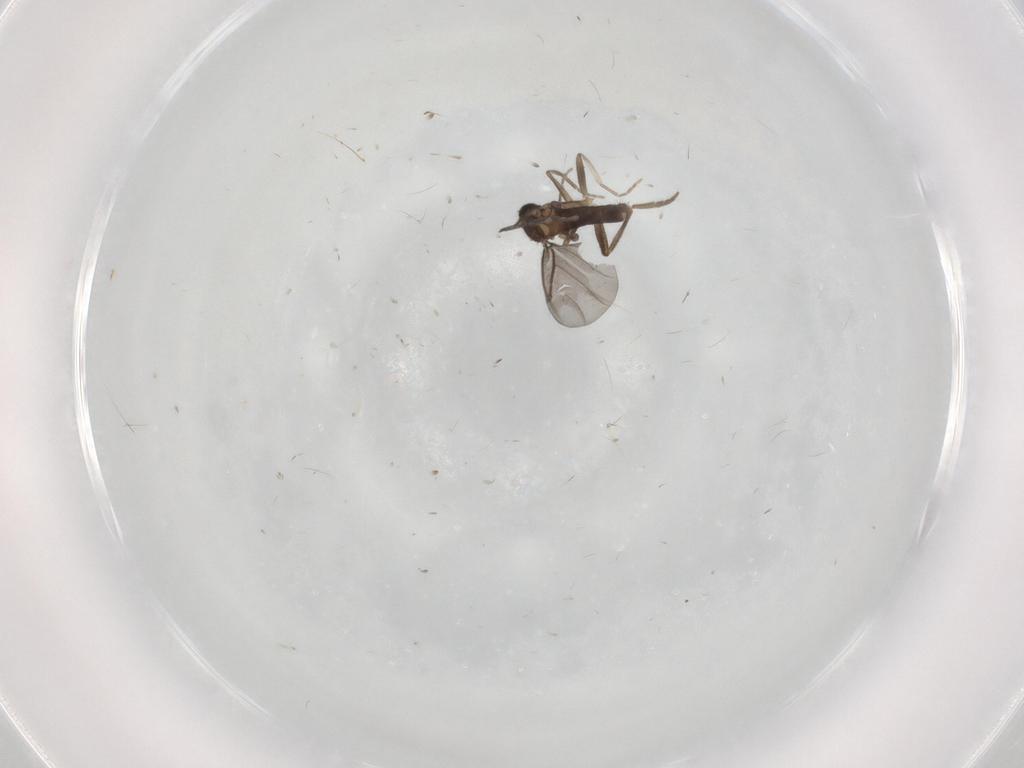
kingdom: Animalia
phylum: Arthropoda
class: Insecta
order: Diptera
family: Phoridae
